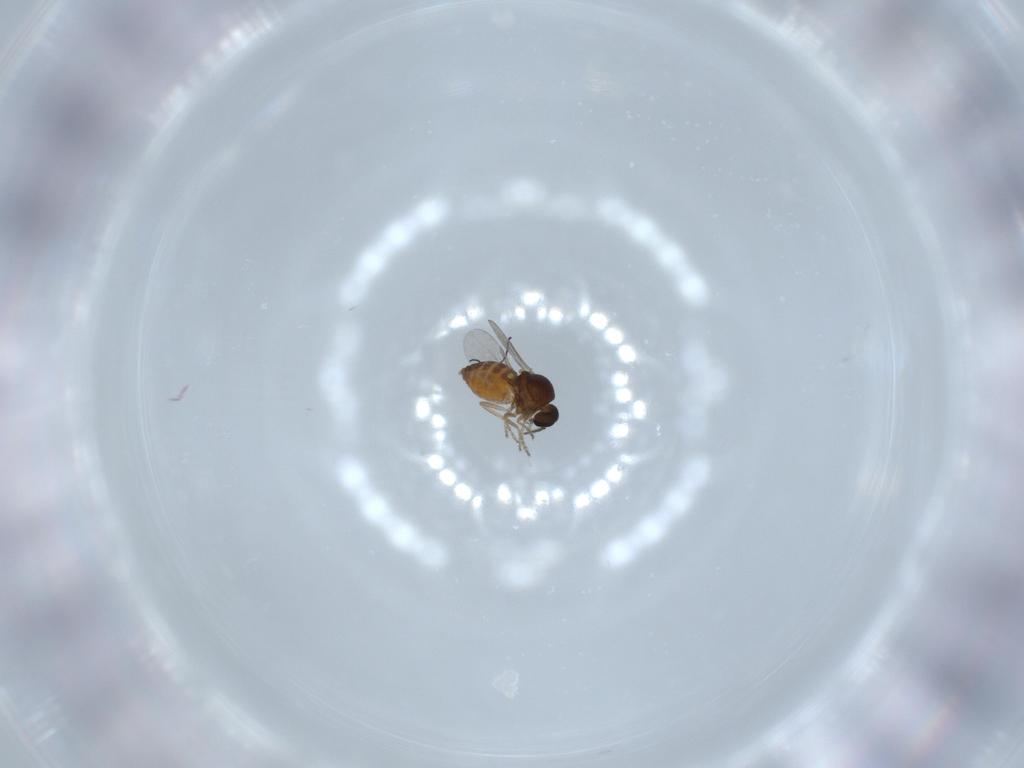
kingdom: Animalia
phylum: Arthropoda
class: Insecta
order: Diptera
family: Ceratopogonidae
